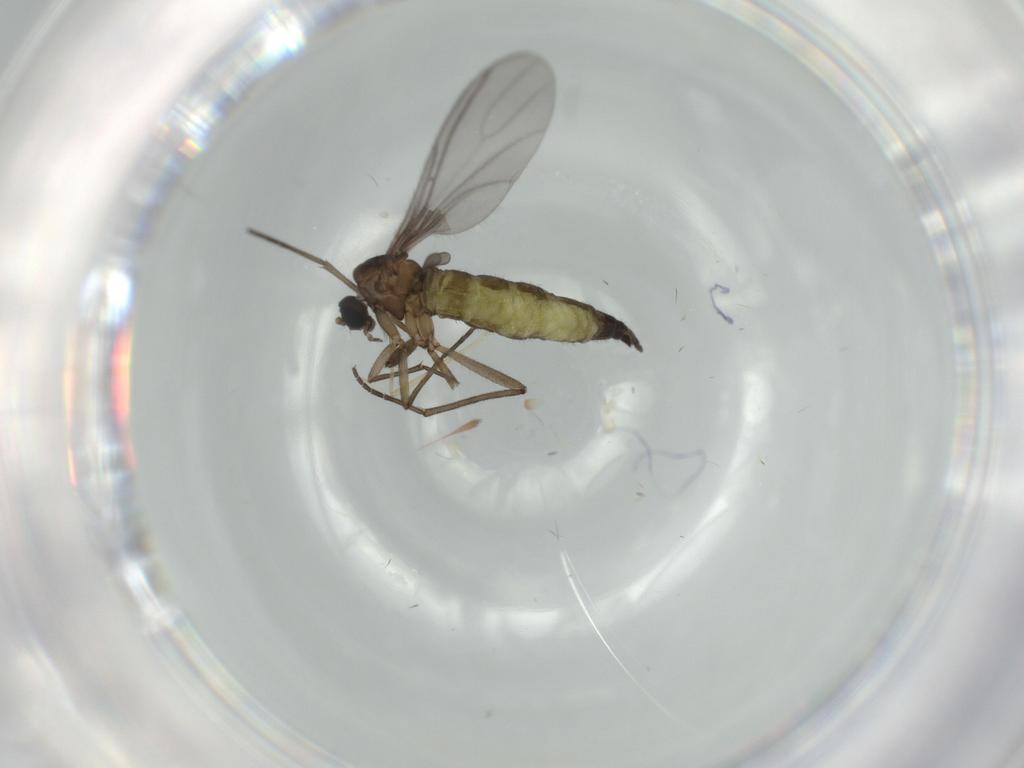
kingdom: Animalia
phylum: Arthropoda
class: Insecta
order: Diptera
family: Sciaridae
